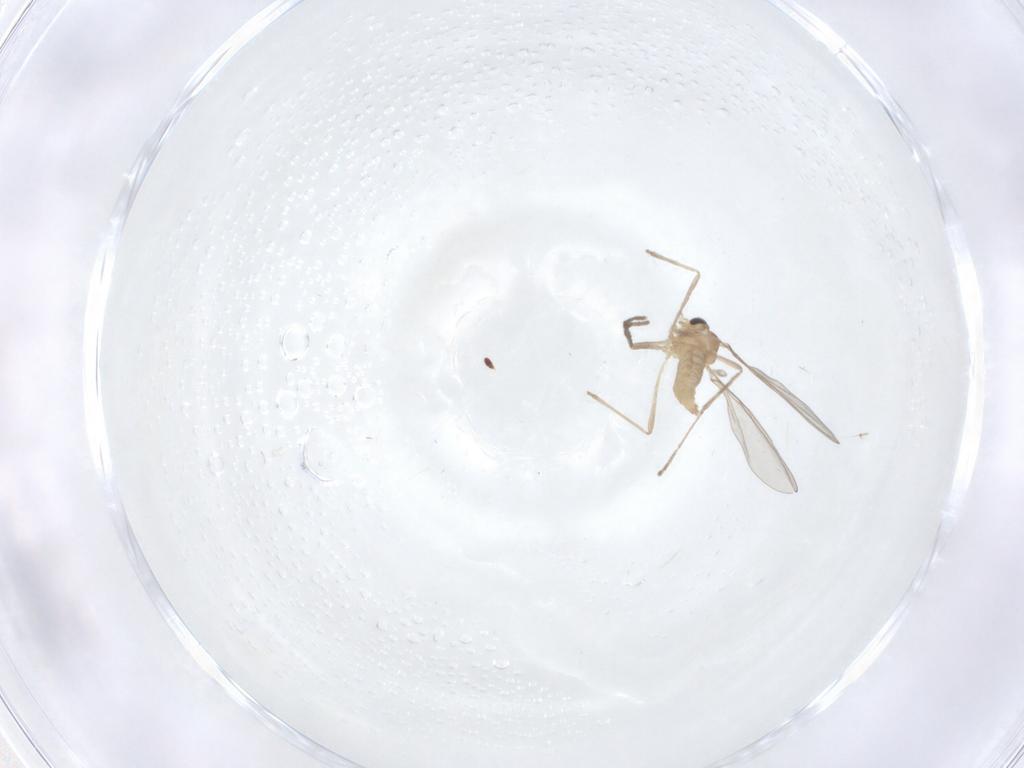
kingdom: Animalia
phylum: Arthropoda
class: Insecta
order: Diptera
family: Cecidomyiidae
